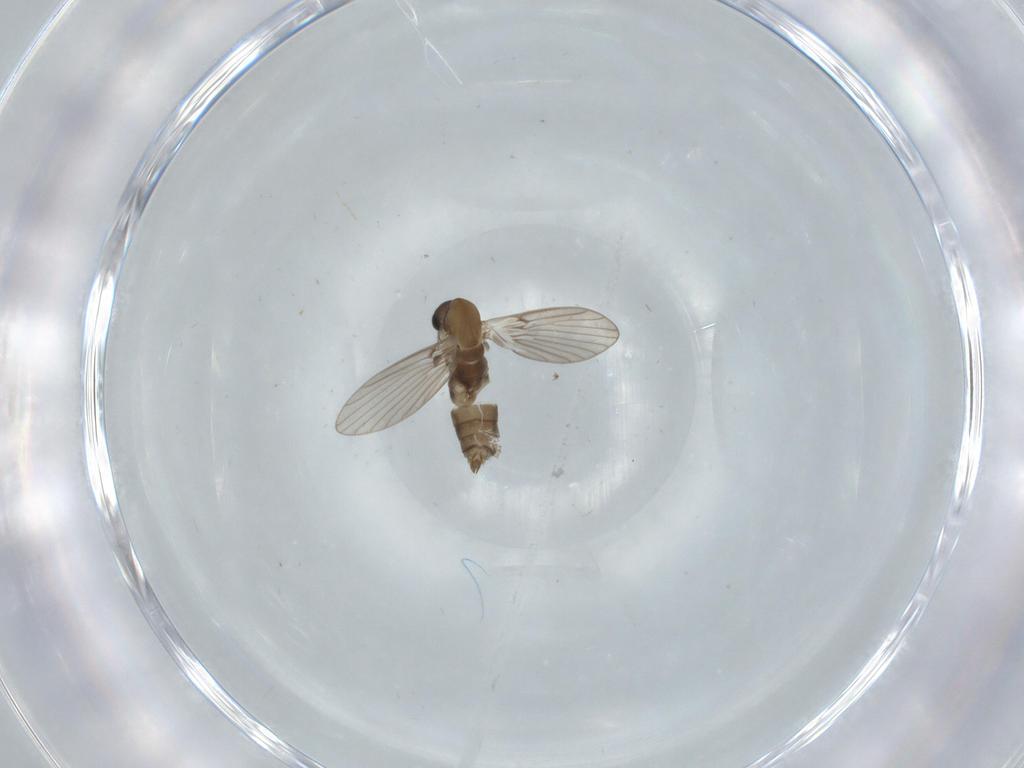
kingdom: Animalia
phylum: Arthropoda
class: Insecta
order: Diptera
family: Psychodidae
